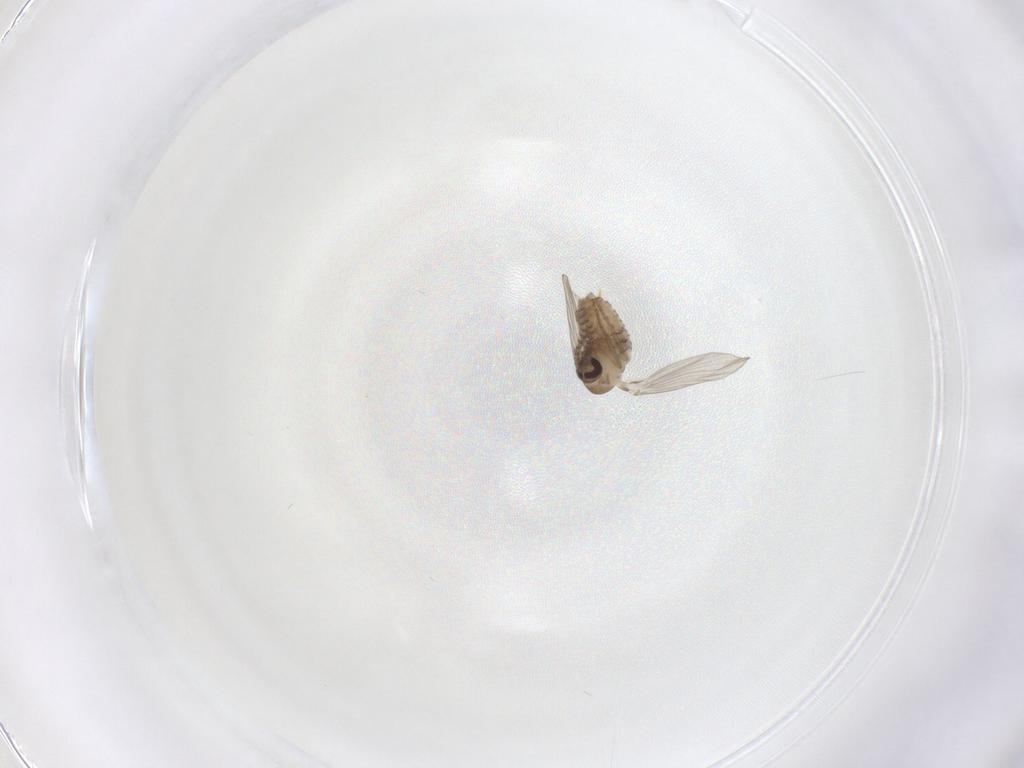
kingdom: Animalia
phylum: Arthropoda
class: Insecta
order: Diptera
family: Psychodidae
